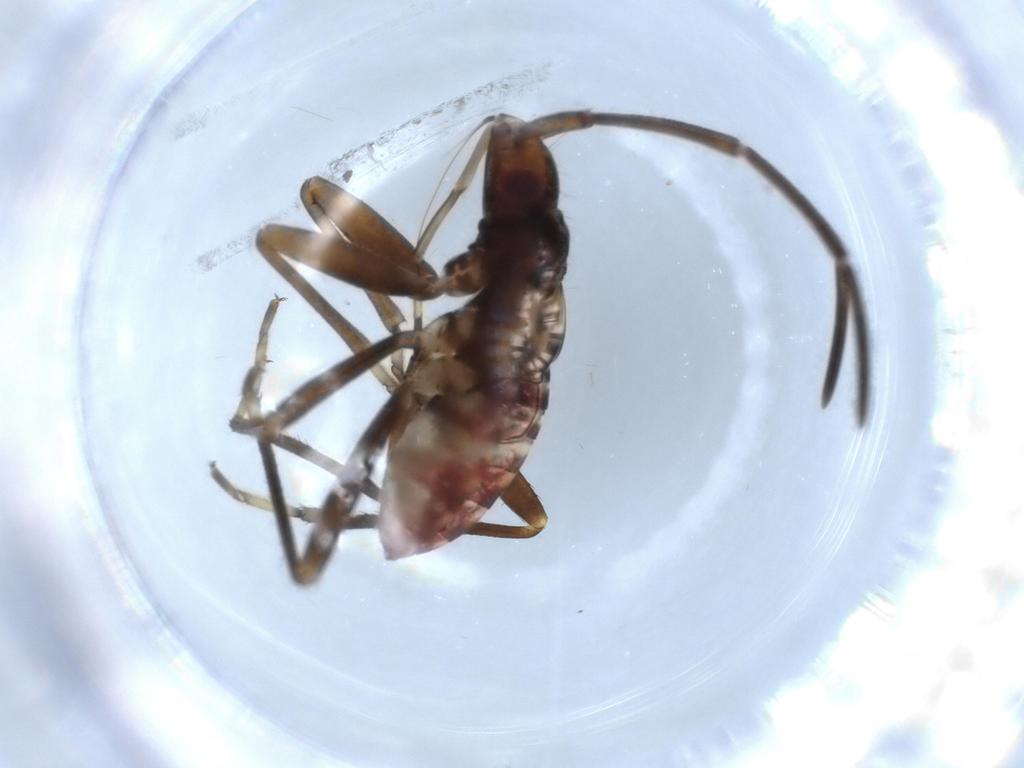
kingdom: Animalia
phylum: Arthropoda
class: Insecta
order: Hemiptera
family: Rhyparochromidae
